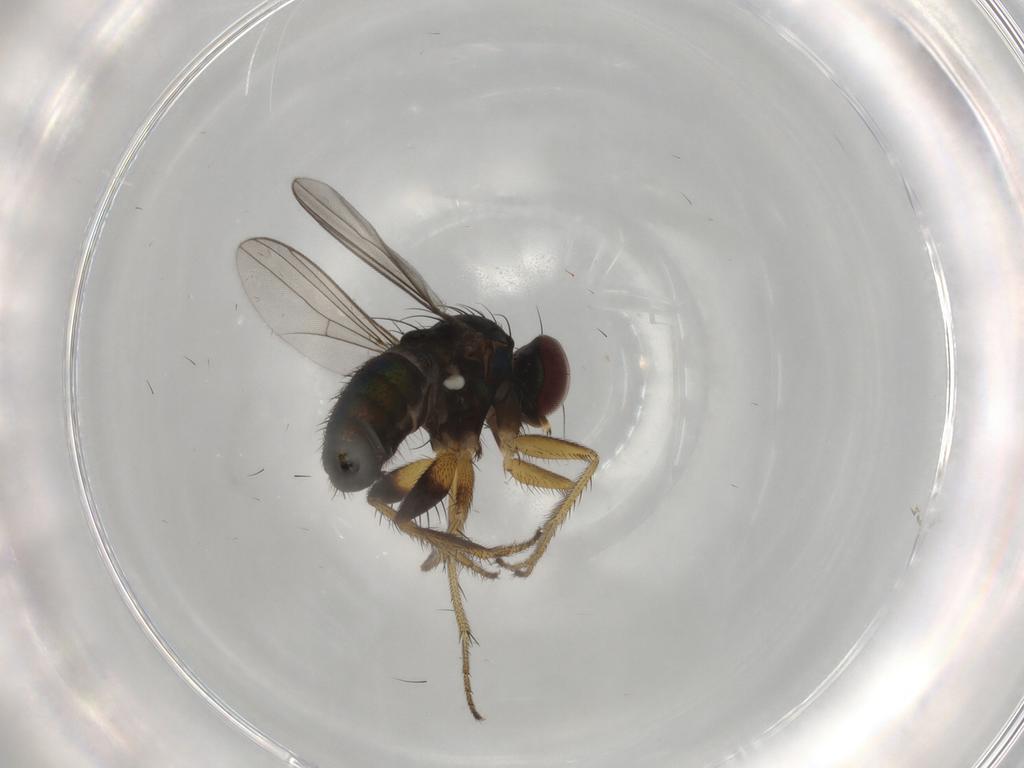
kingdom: Animalia
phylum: Arthropoda
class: Insecta
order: Diptera
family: Dolichopodidae
